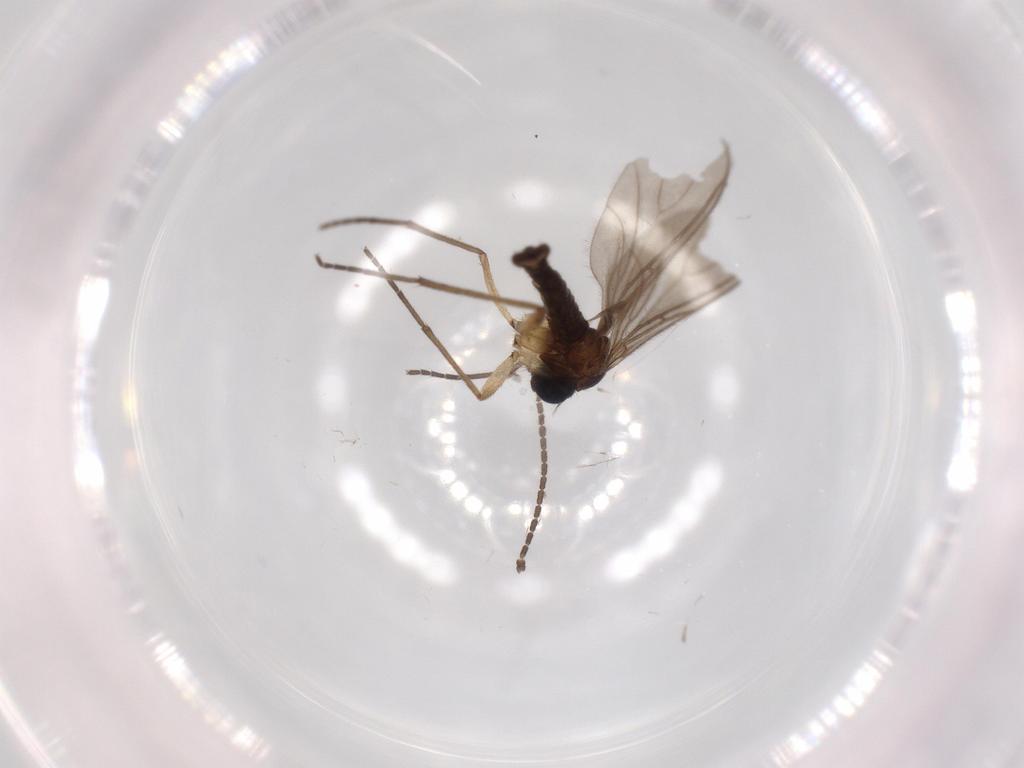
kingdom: Animalia
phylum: Arthropoda
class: Insecta
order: Diptera
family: Sciaridae
